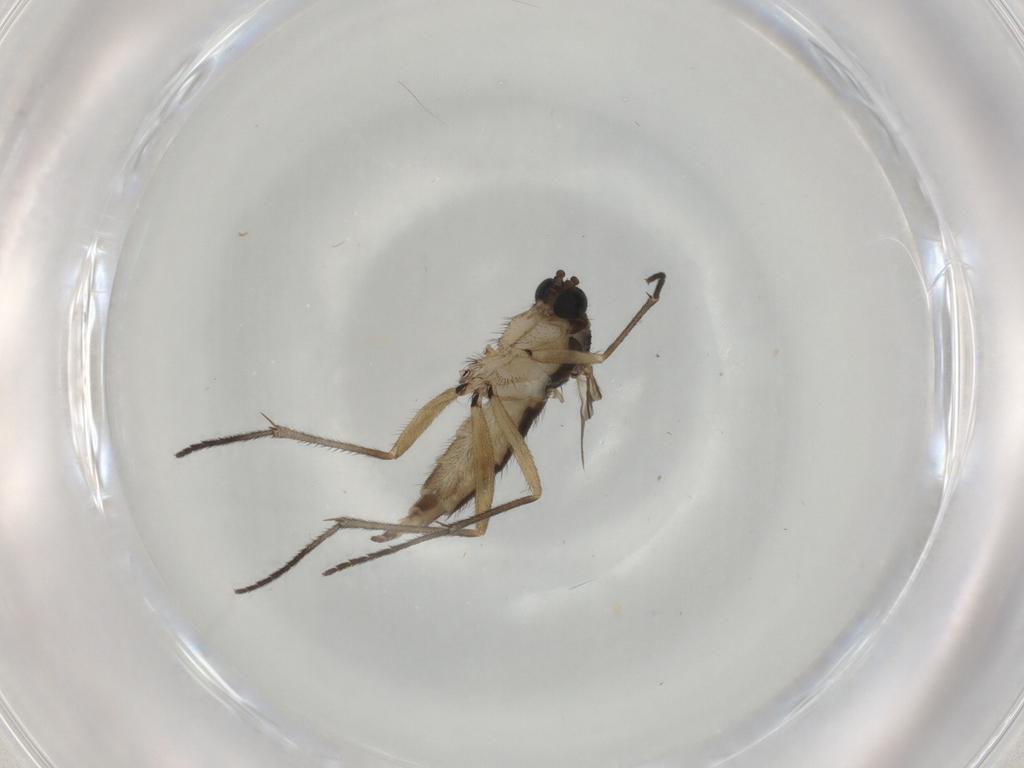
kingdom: Animalia
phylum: Arthropoda
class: Insecta
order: Diptera
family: Sciaridae
